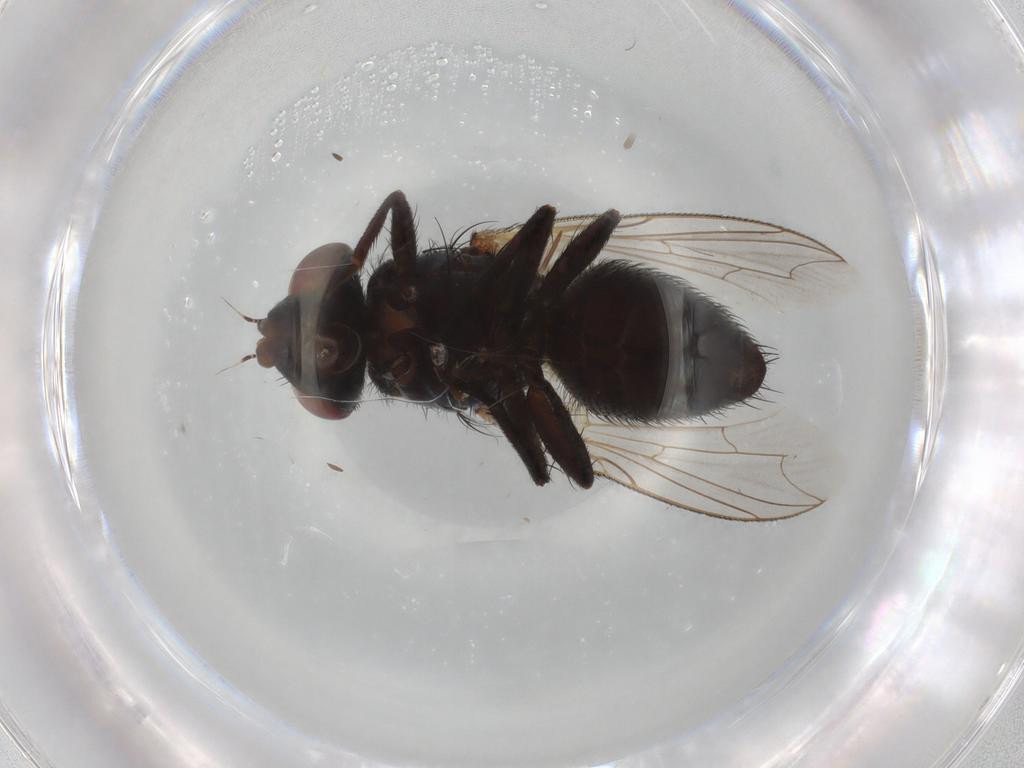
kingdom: Animalia
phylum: Arthropoda
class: Insecta
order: Diptera
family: Sarcophagidae
